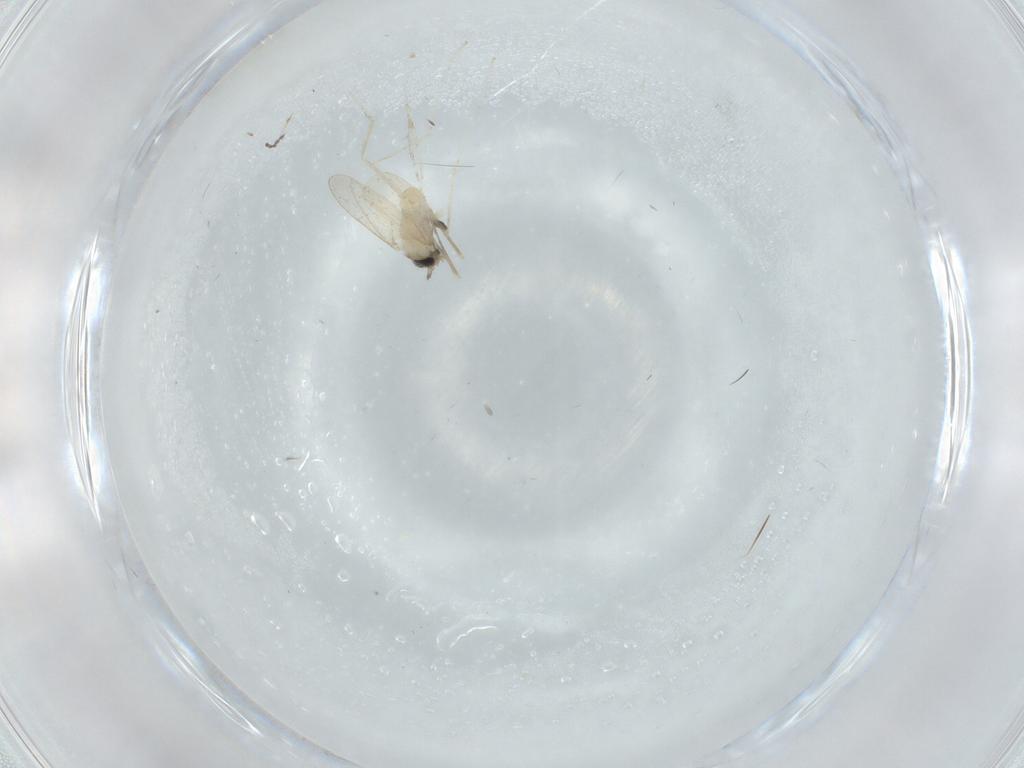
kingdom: Animalia
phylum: Arthropoda
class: Insecta
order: Diptera
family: Cecidomyiidae
